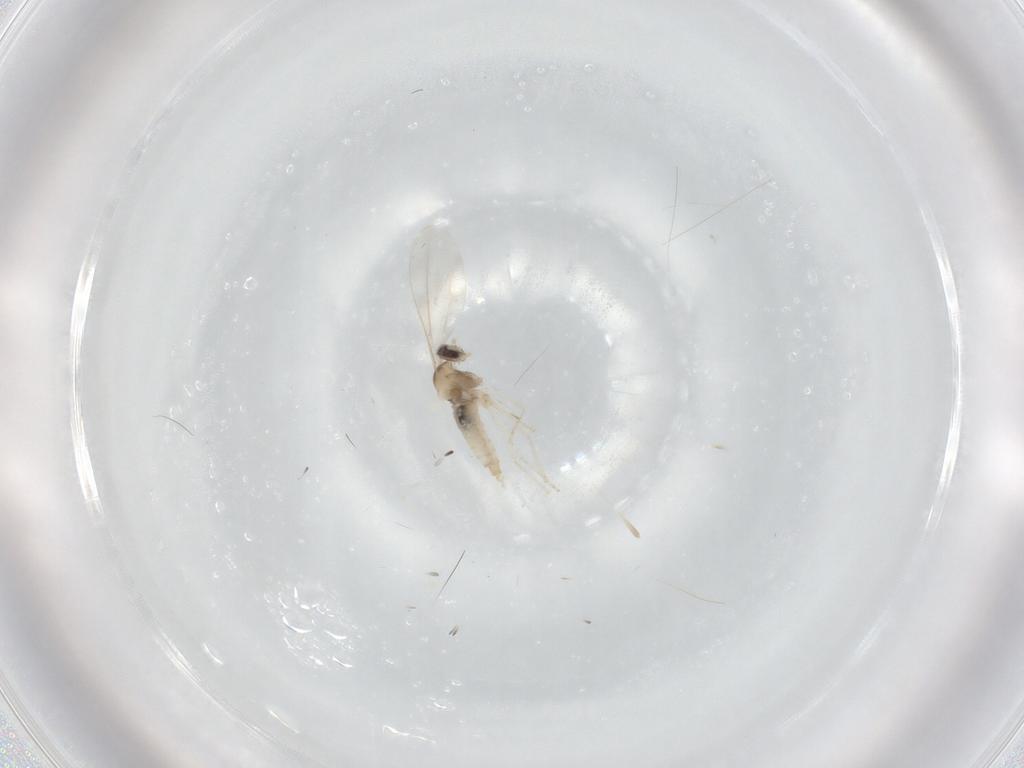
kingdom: Animalia
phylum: Arthropoda
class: Insecta
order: Diptera
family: Cecidomyiidae
